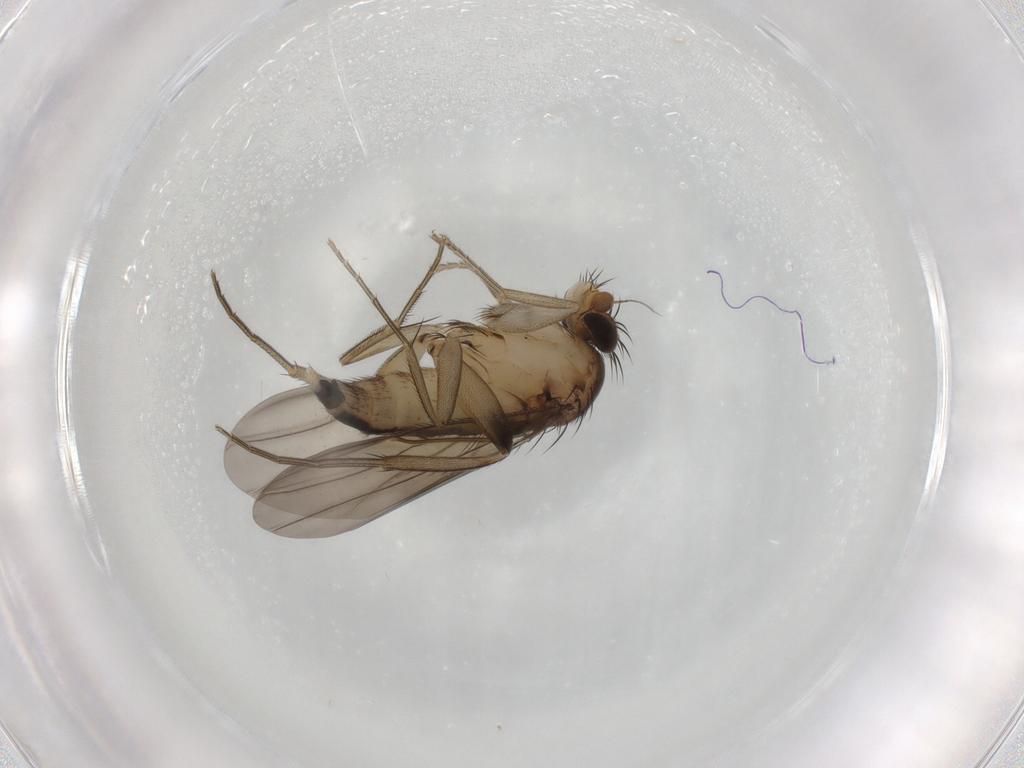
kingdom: Animalia
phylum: Arthropoda
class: Insecta
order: Diptera
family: Phoridae
